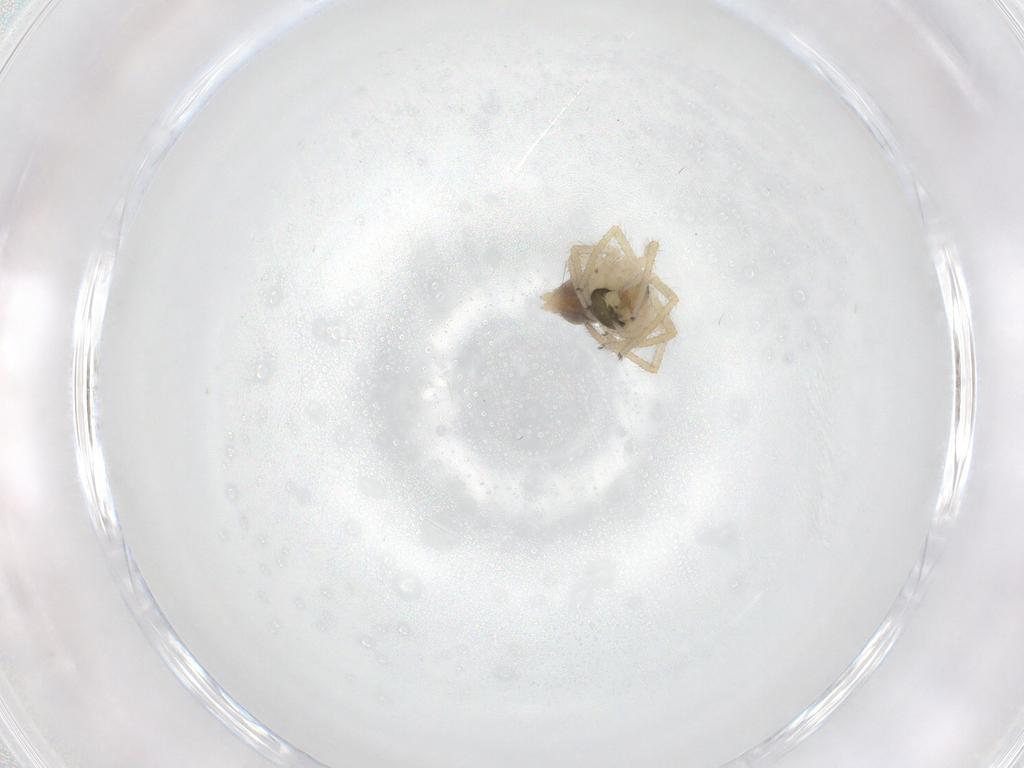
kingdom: Animalia
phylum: Arthropoda
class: Arachnida
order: Araneae
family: Linyphiidae
